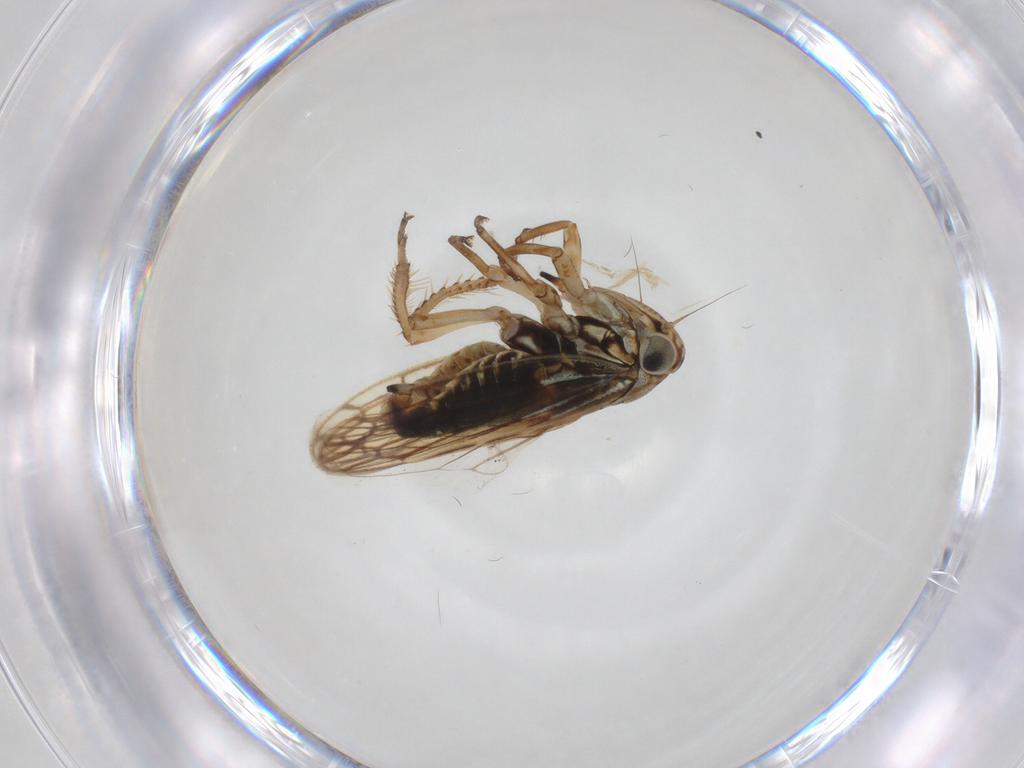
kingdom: Animalia
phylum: Arthropoda
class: Insecta
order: Hemiptera
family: Cicadellidae
